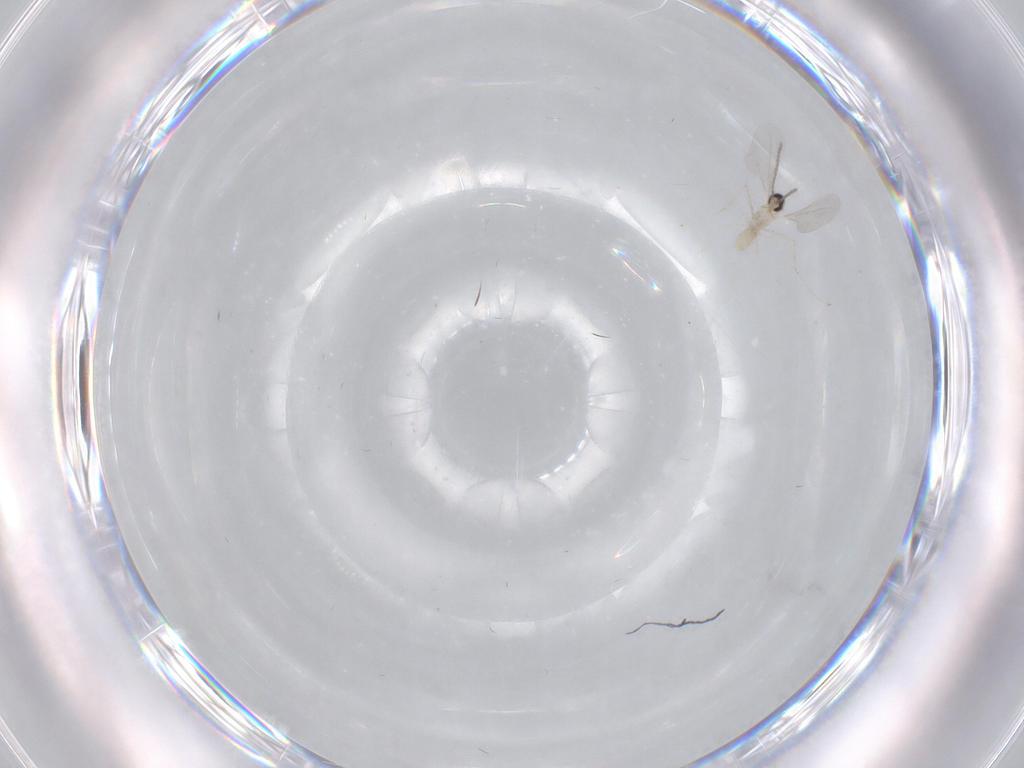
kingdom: Animalia
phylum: Arthropoda
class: Insecta
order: Diptera
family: Cecidomyiidae
